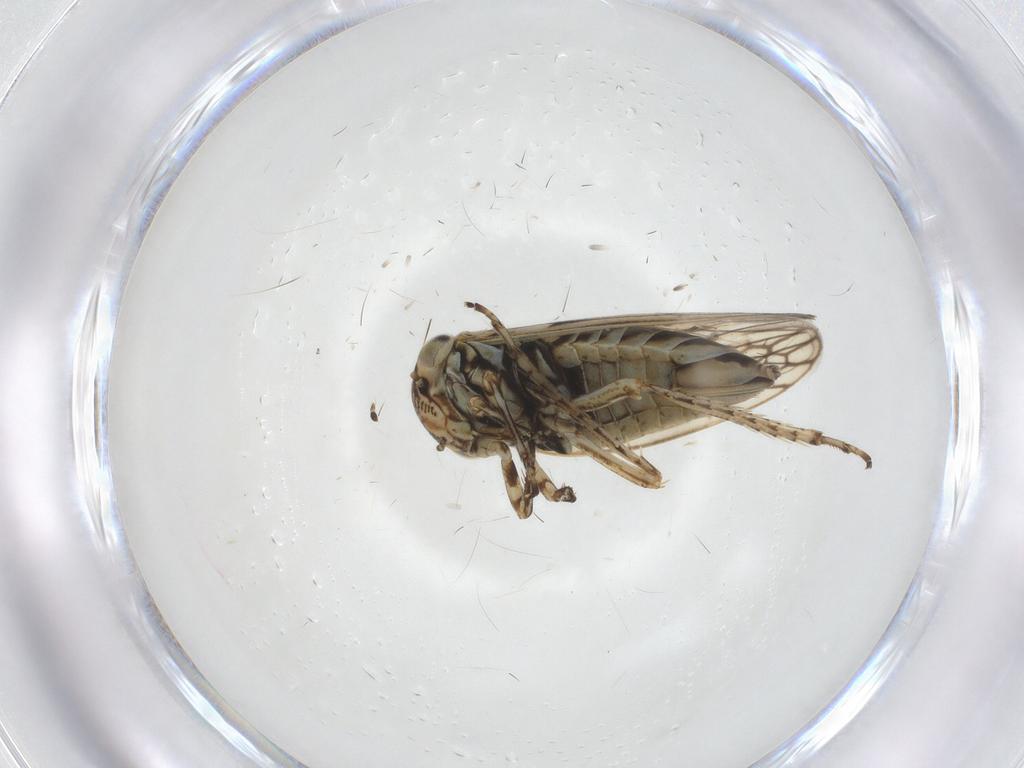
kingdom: Animalia
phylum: Arthropoda
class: Insecta
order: Hemiptera
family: Cicadellidae
